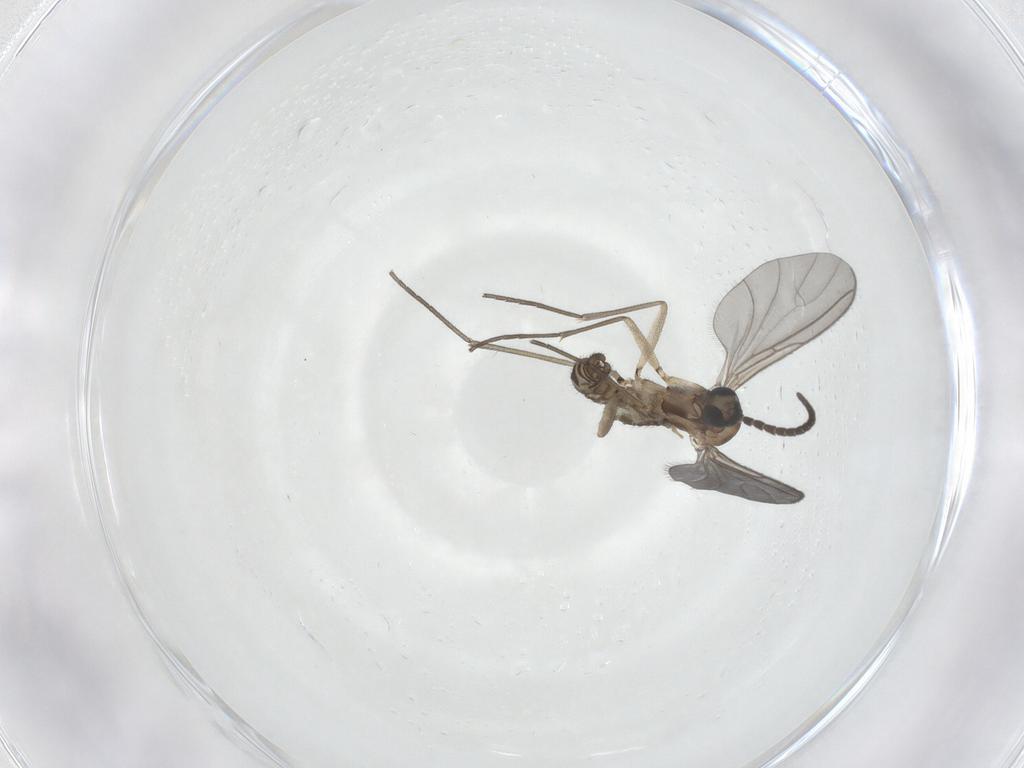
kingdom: Animalia
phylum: Arthropoda
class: Insecta
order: Diptera
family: Sciaridae
